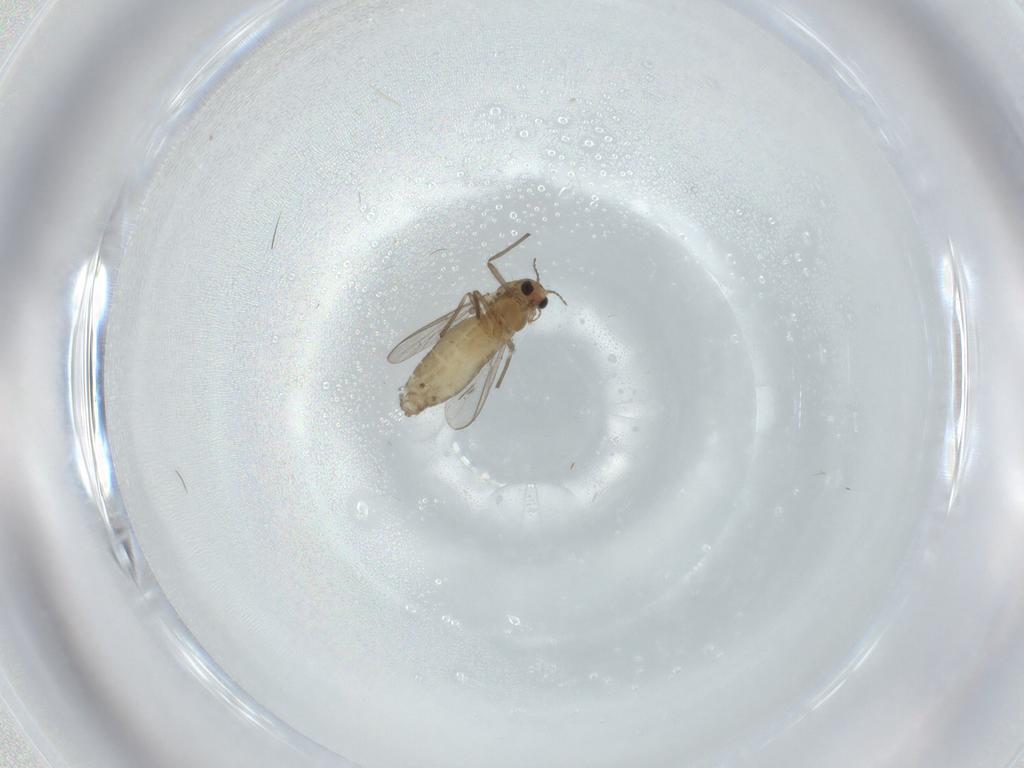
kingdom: Animalia
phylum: Arthropoda
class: Insecta
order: Diptera
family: Chironomidae
